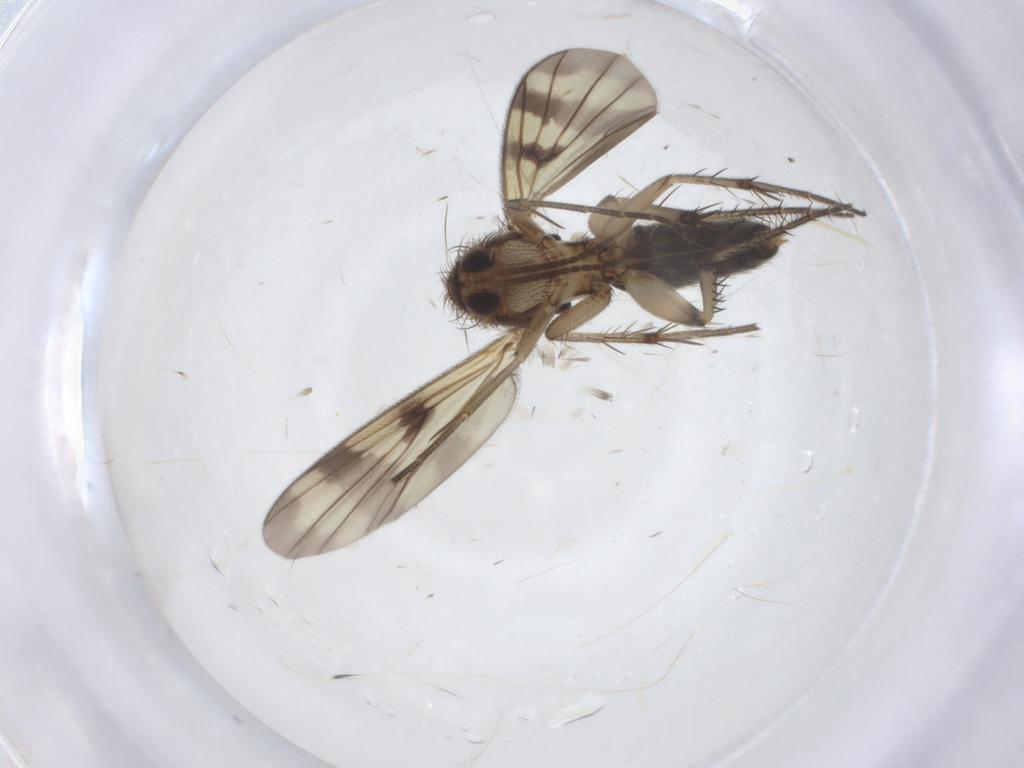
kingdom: Animalia
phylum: Arthropoda
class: Insecta
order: Diptera
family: Mycetophilidae
